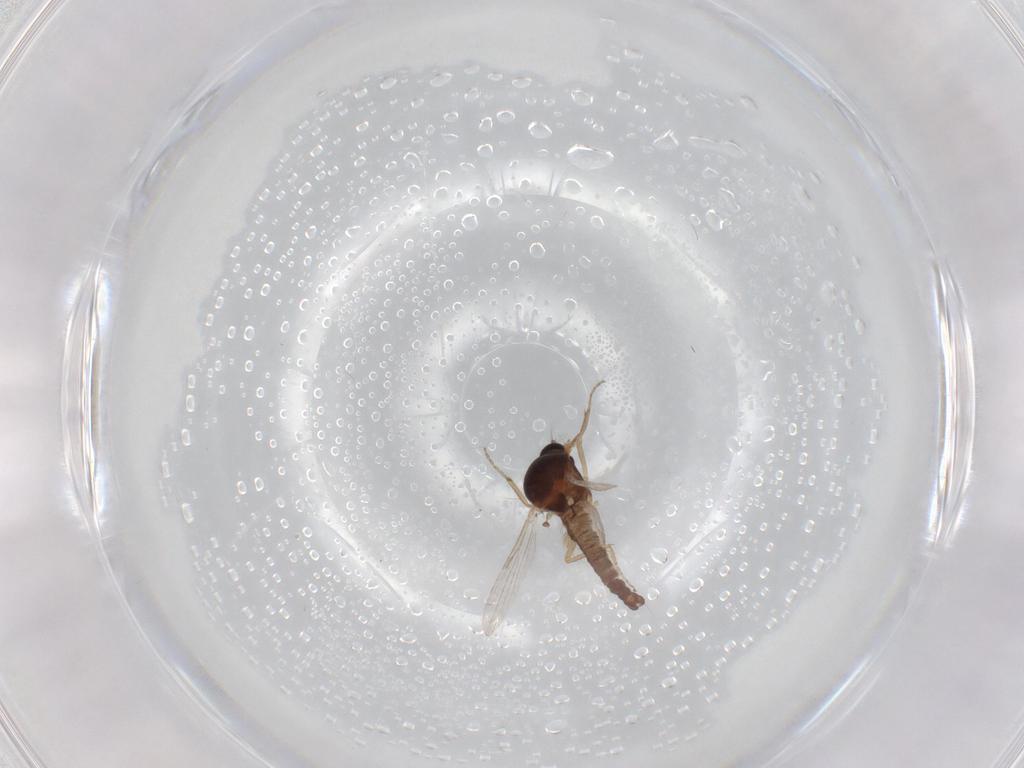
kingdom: Animalia
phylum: Arthropoda
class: Insecta
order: Diptera
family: Ceratopogonidae
